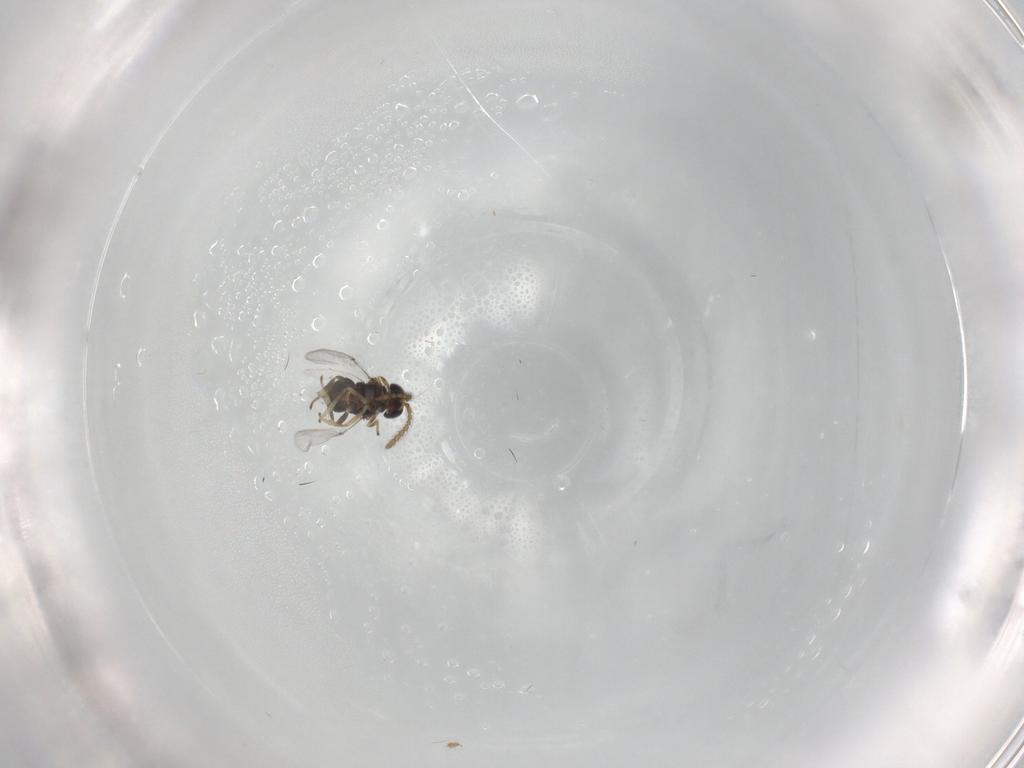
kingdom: Animalia
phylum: Arthropoda
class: Insecta
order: Hymenoptera
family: Encyrtidae
